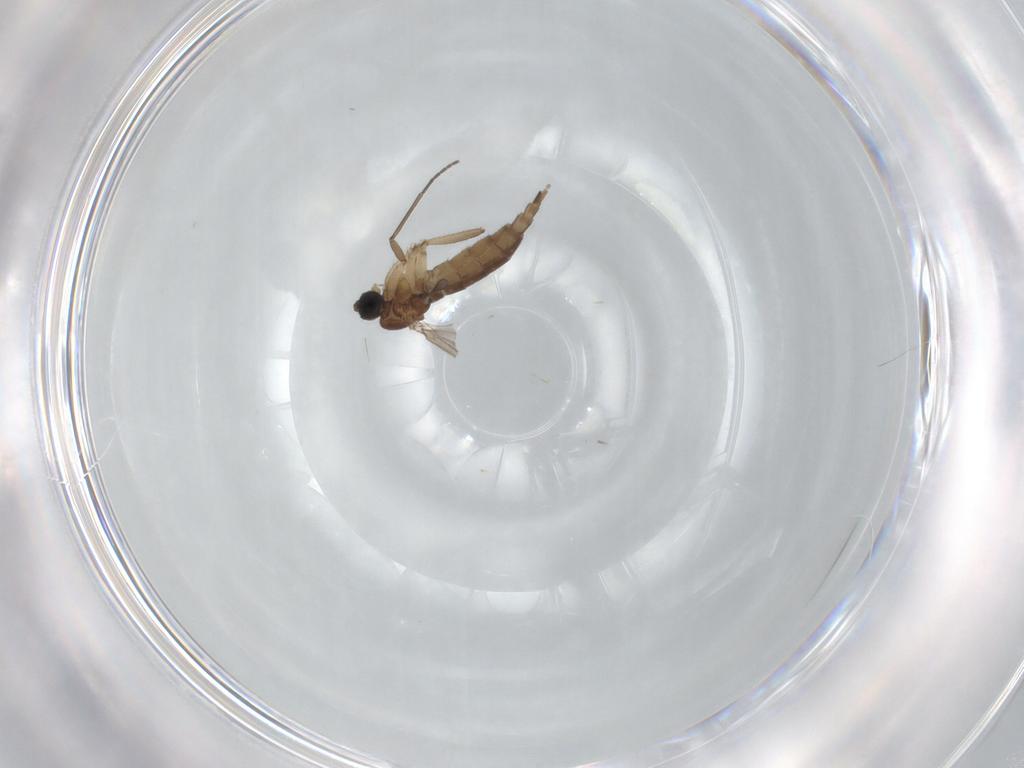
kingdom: Animalia
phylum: Arthropoda
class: Insecta
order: Diptera
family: Sciaridae
